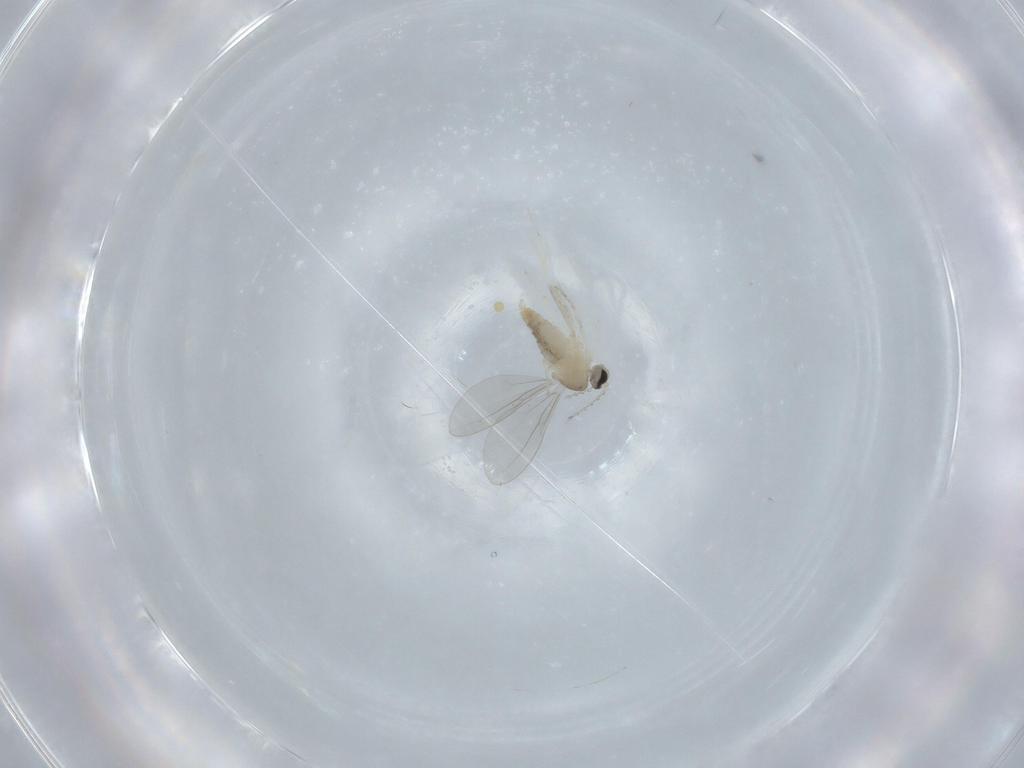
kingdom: Animalia
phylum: Arthropoda
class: Insecta
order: Diptera
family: Cecidomyiidae
